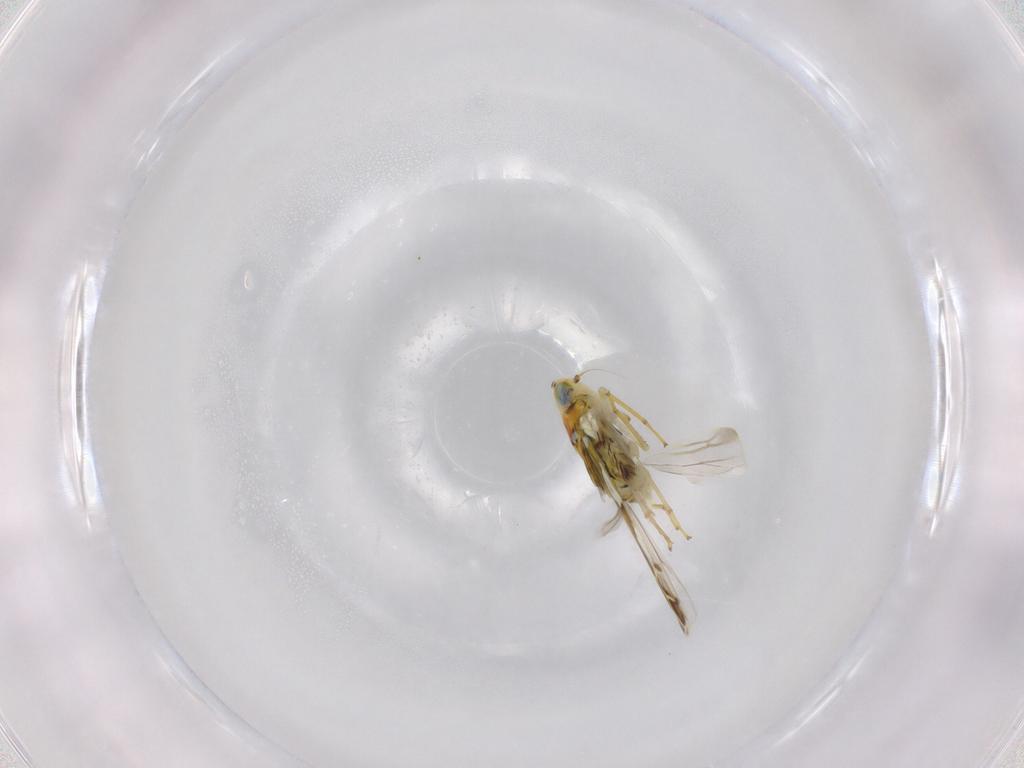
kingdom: Animalia
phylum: Arthropoda
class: Insecta
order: Hemiptera
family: Cicadellidae
